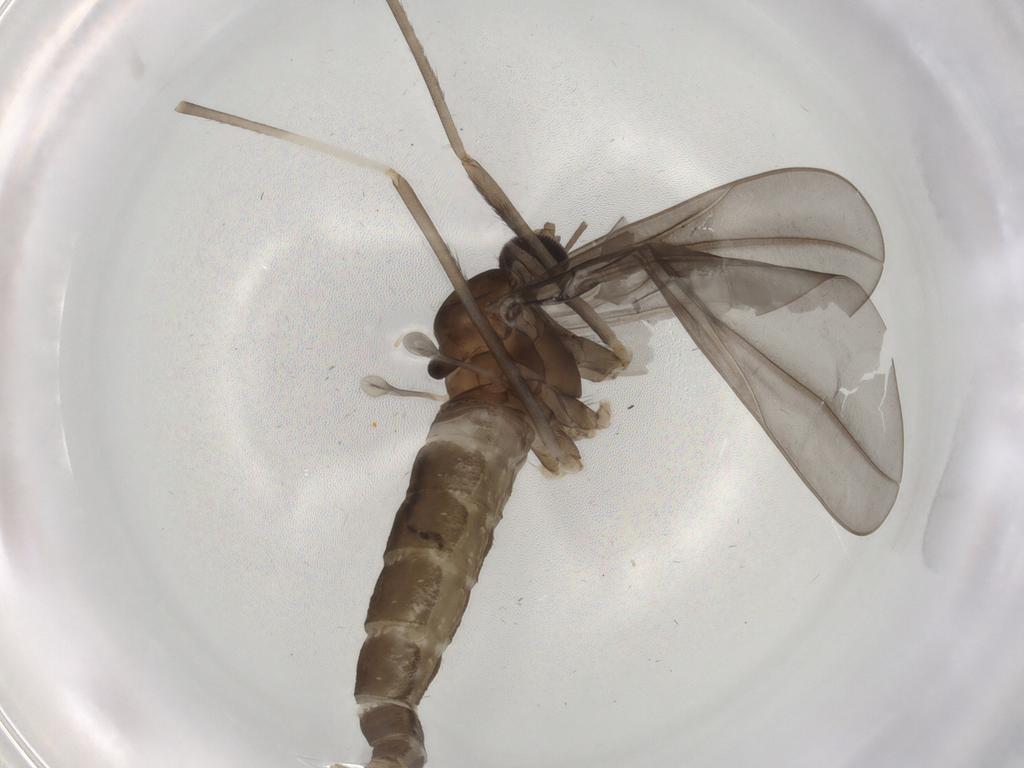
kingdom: Animalia
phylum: Arthropoda
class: Insecta
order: Diptera
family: Cecidomyiidae
